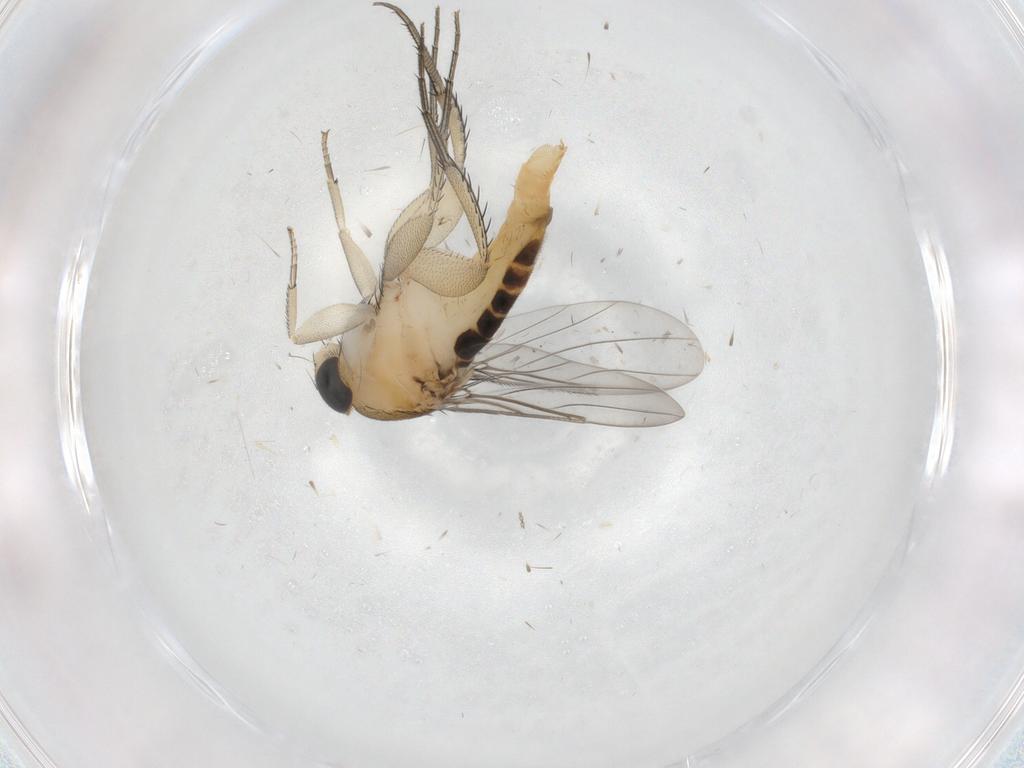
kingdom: Animalia
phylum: Arthropoda
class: Insecta
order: Diptera
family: Phoridae
